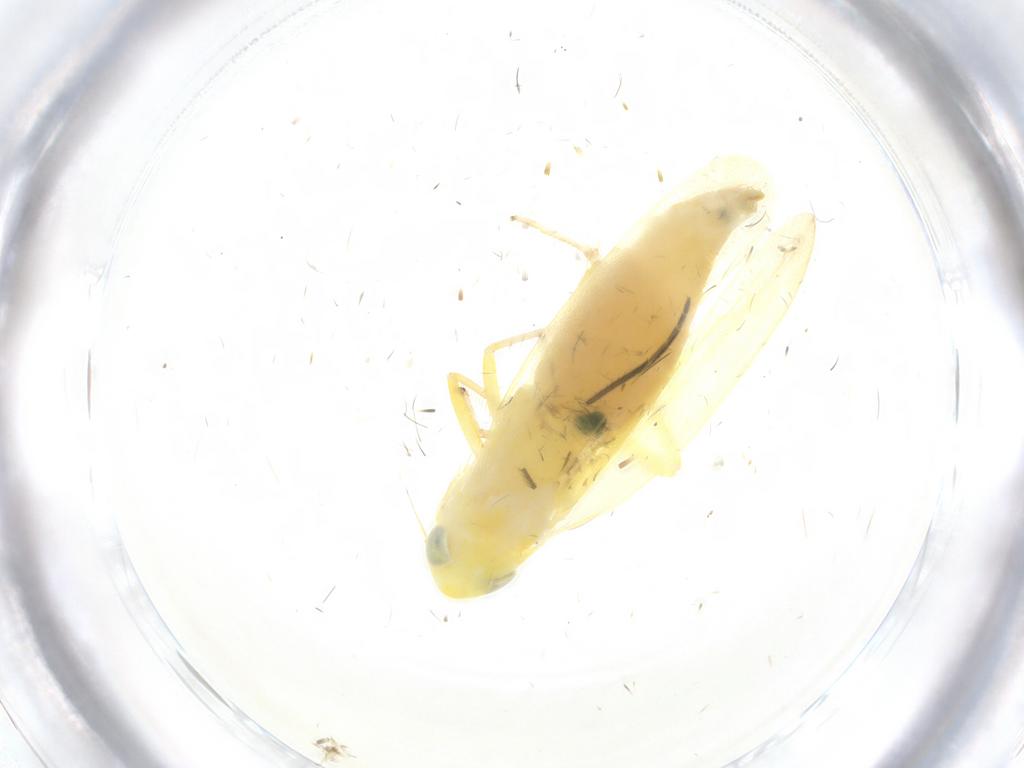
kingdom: Animalia
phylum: Arthropoda
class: Insecta
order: Hemiptera
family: Cicadellidae
